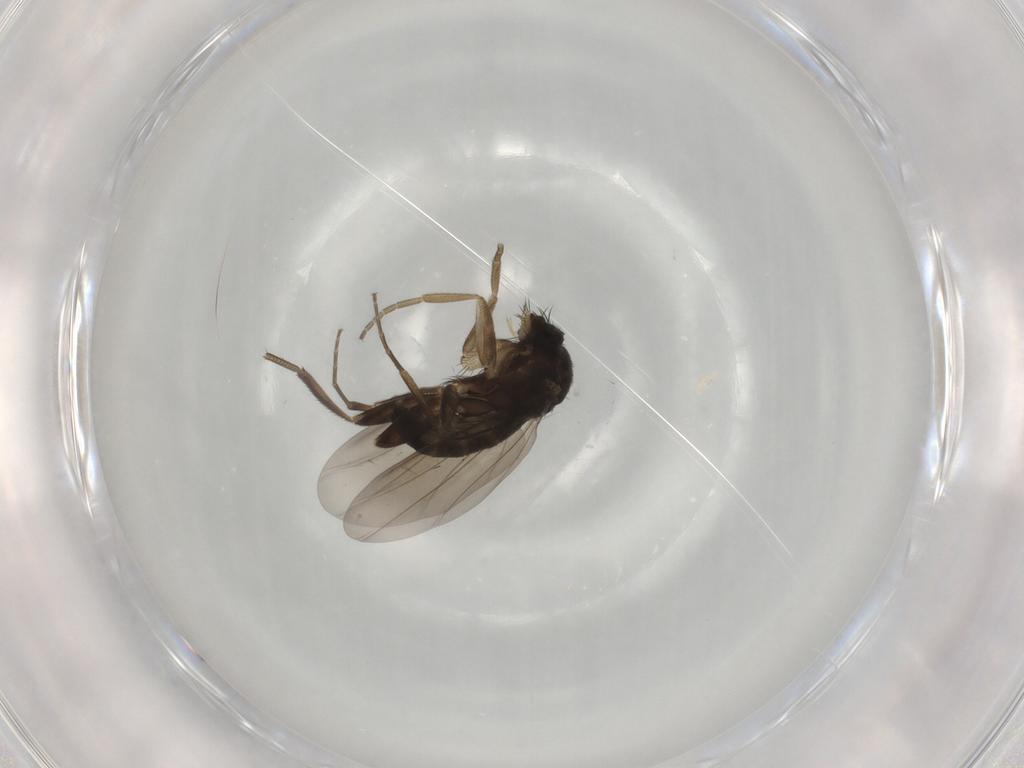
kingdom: Animalia
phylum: Arthropoda
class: Insecta
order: Diptera
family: Phoridae
